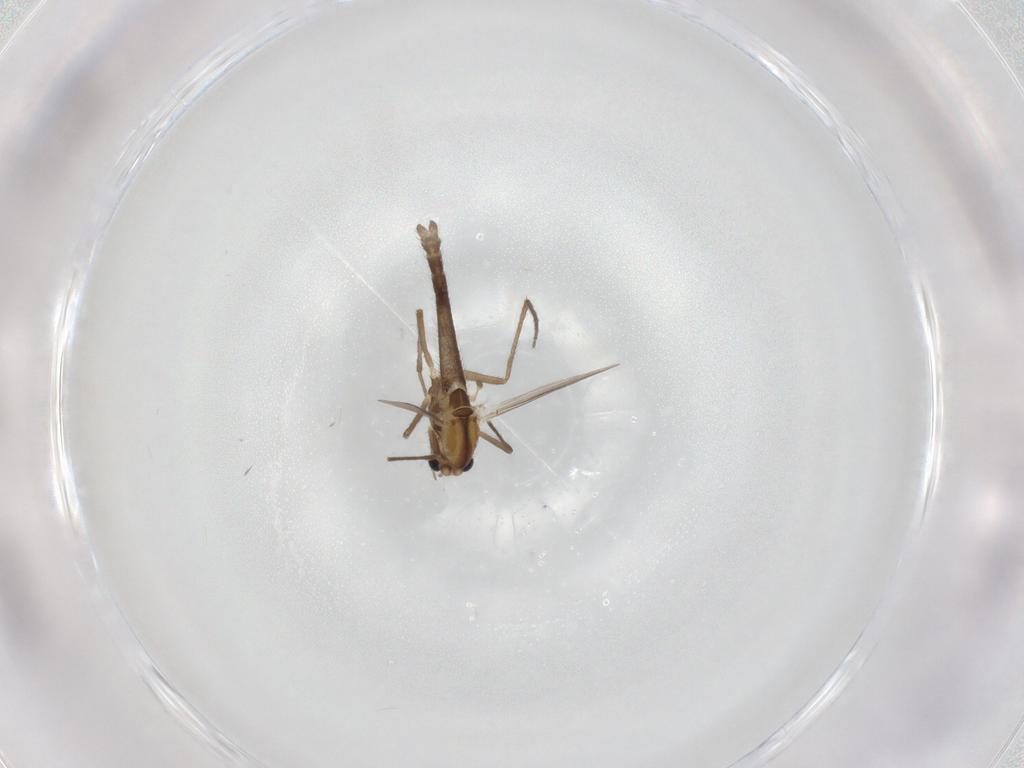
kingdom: Animalia
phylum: Arthropoda
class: Insecta
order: Diptera
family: Chironomidae
